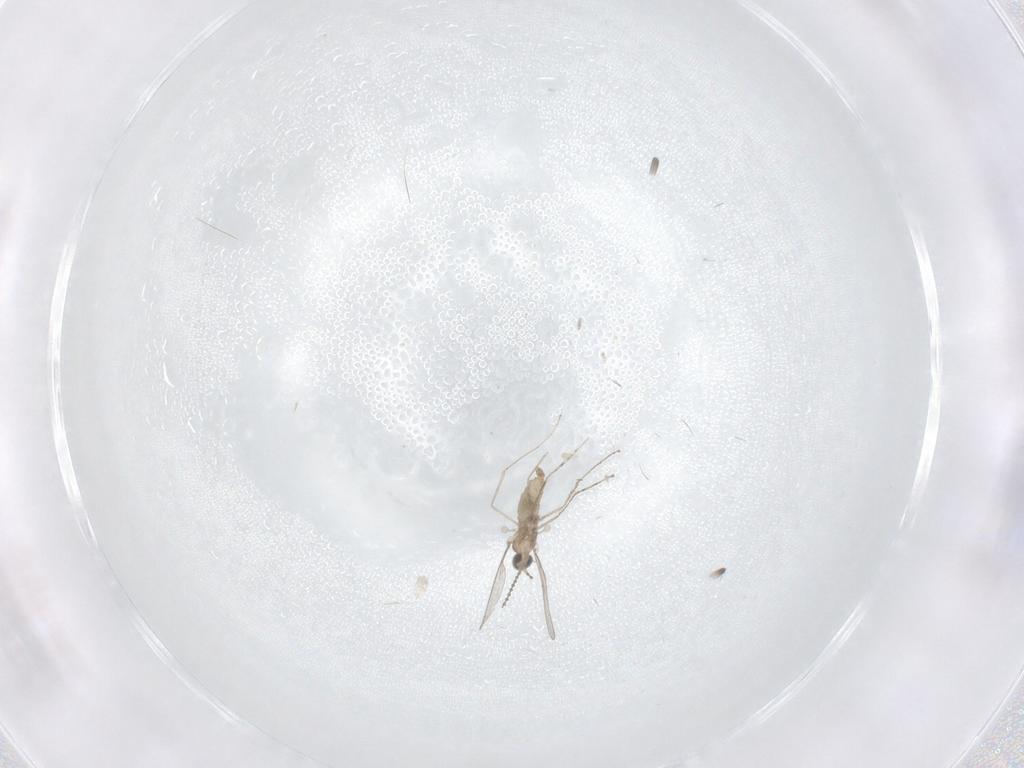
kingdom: Animalia
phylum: Arthropoda
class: Insecta
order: Diptera
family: Cecidomyiidae
